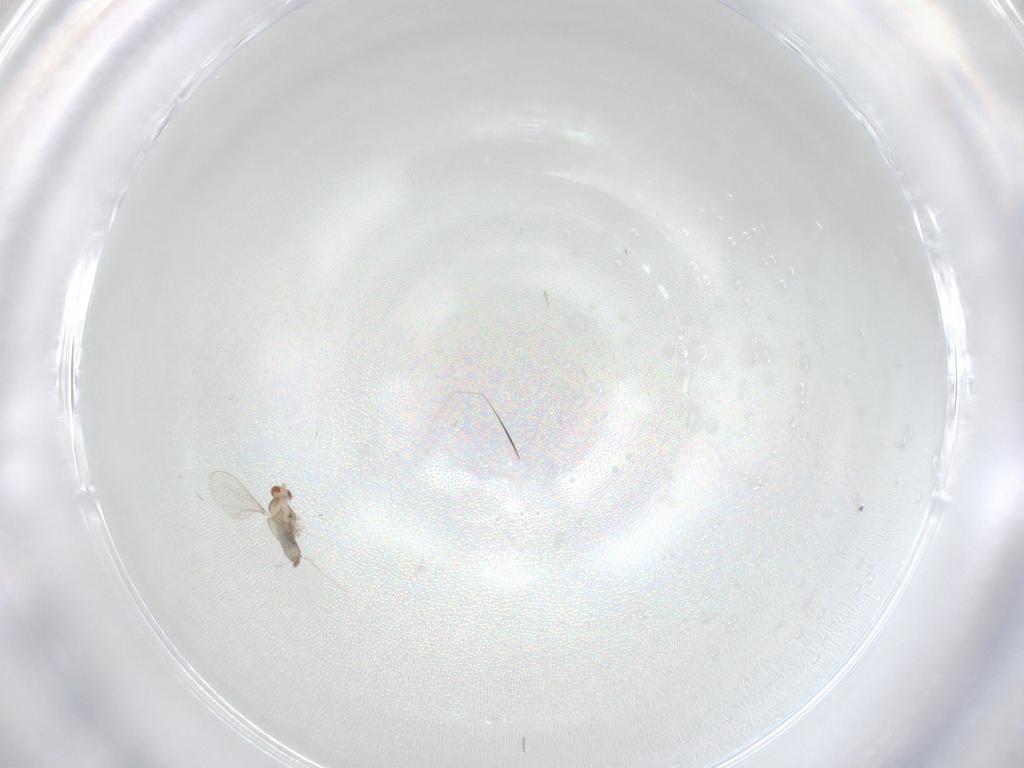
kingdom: Animalia
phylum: Arthropoda
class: Insecta
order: Diptera
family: Cecidomyiidae
